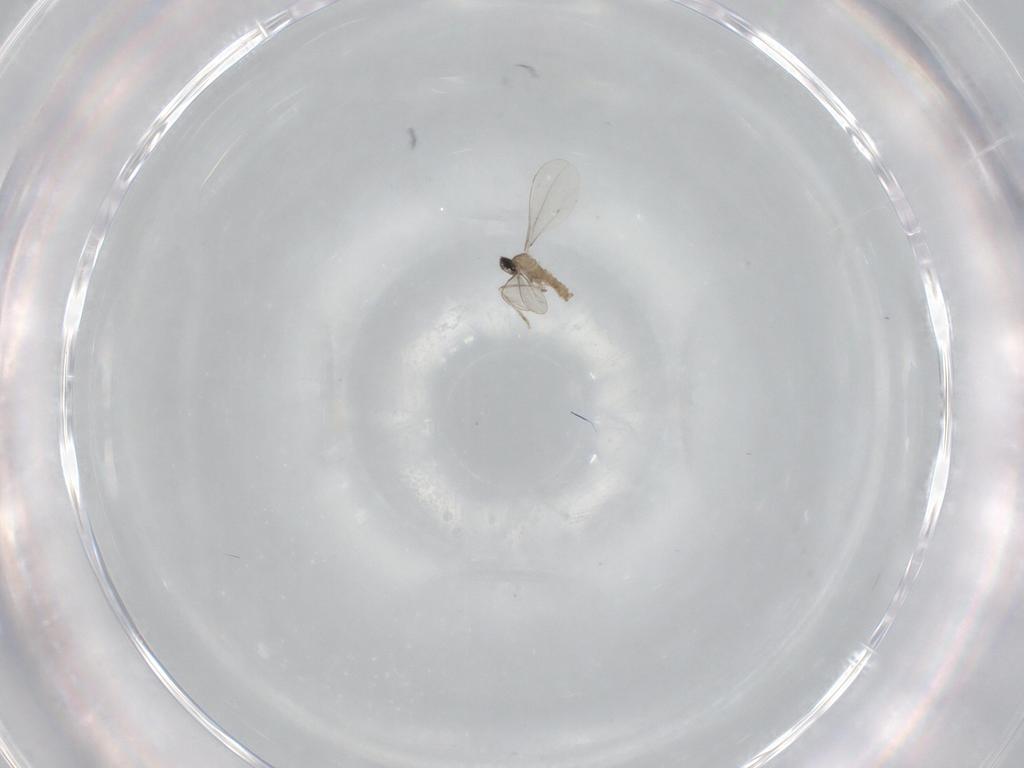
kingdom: Animalia
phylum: Arthropoda
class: Insecta
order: Diptera
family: Cecidomyiidae
